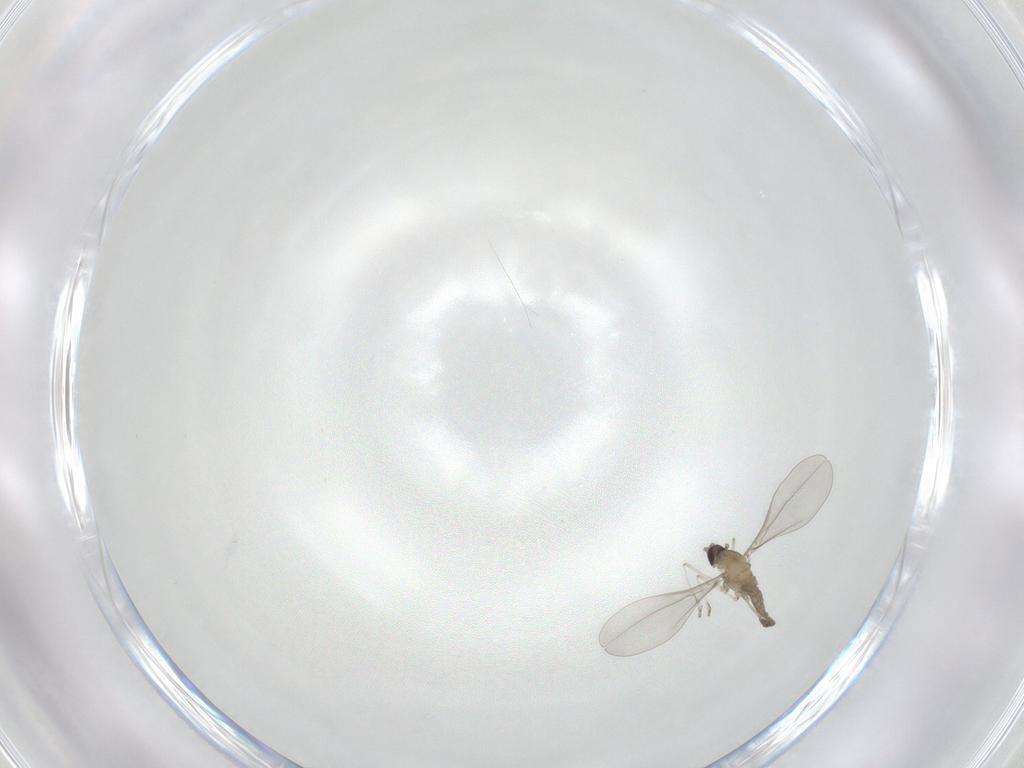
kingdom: Animalia
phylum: Arthropoda
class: Insecta
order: Diptera
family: Cecidomyiidae
